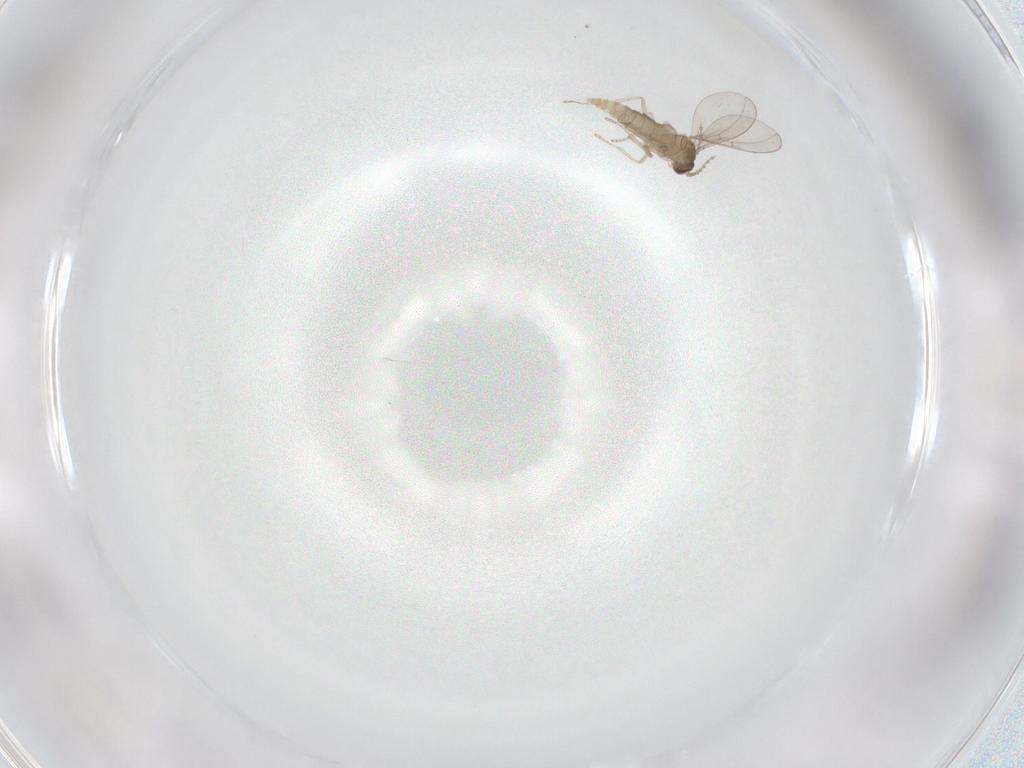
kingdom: Animalia
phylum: Arthropoda
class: Insecta
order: Diptera
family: Cecidomyiidae
